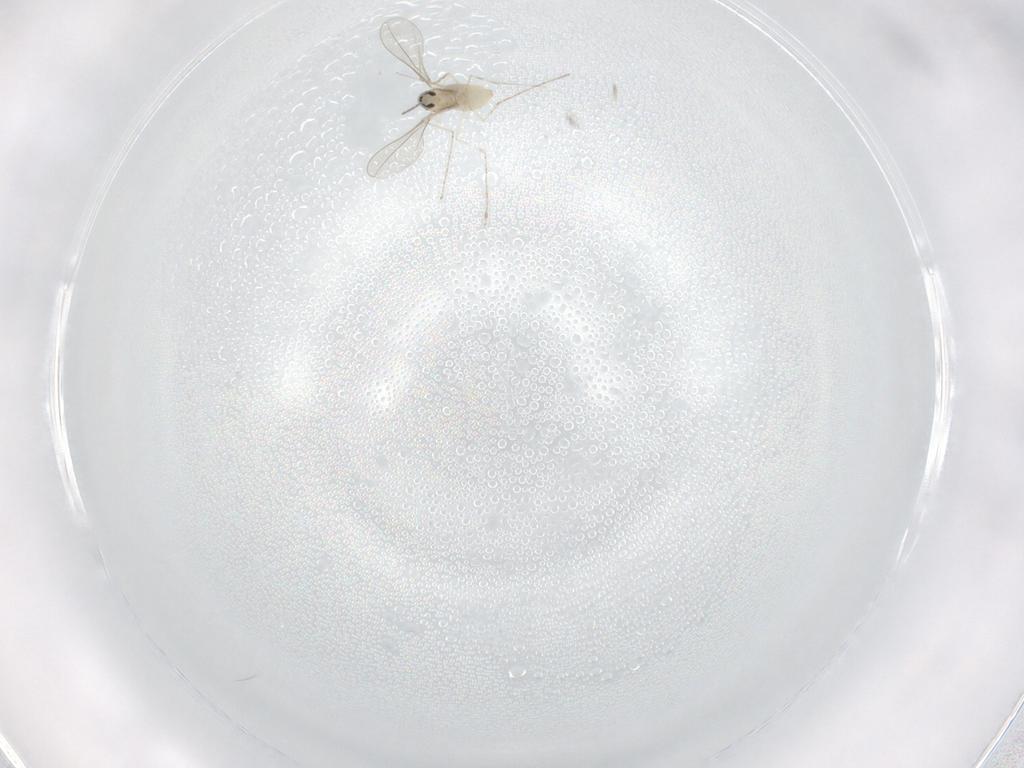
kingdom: Animalia
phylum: Arthropoda
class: Insecta
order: Diptera
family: Cecidomyiidae
